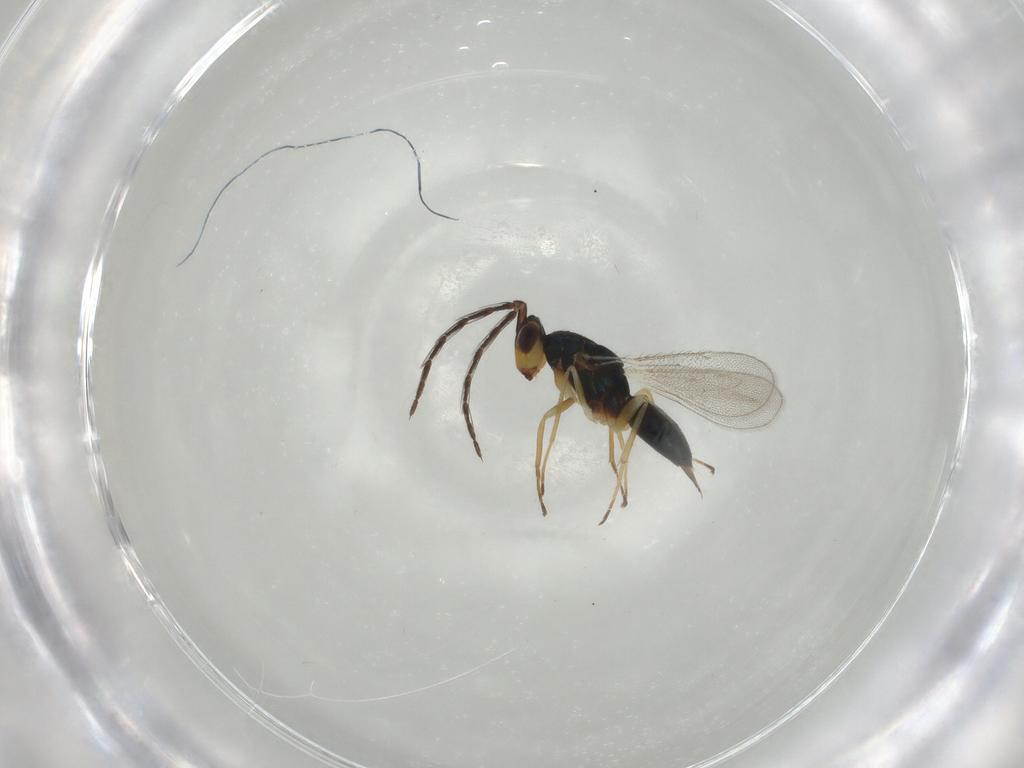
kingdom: Animalia
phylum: Arthropoda
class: Insecta
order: Hymenoptera
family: Eulophidae
